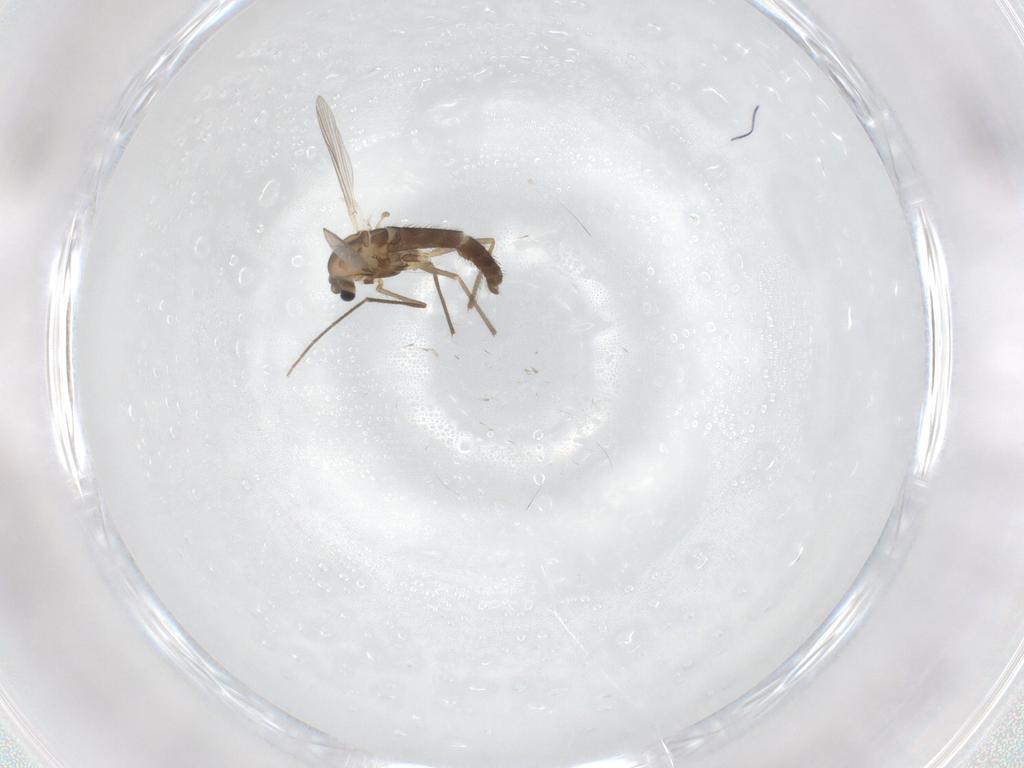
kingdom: Animalia
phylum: Arthropoda
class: Insecta
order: Diptera
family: Chironomidae
